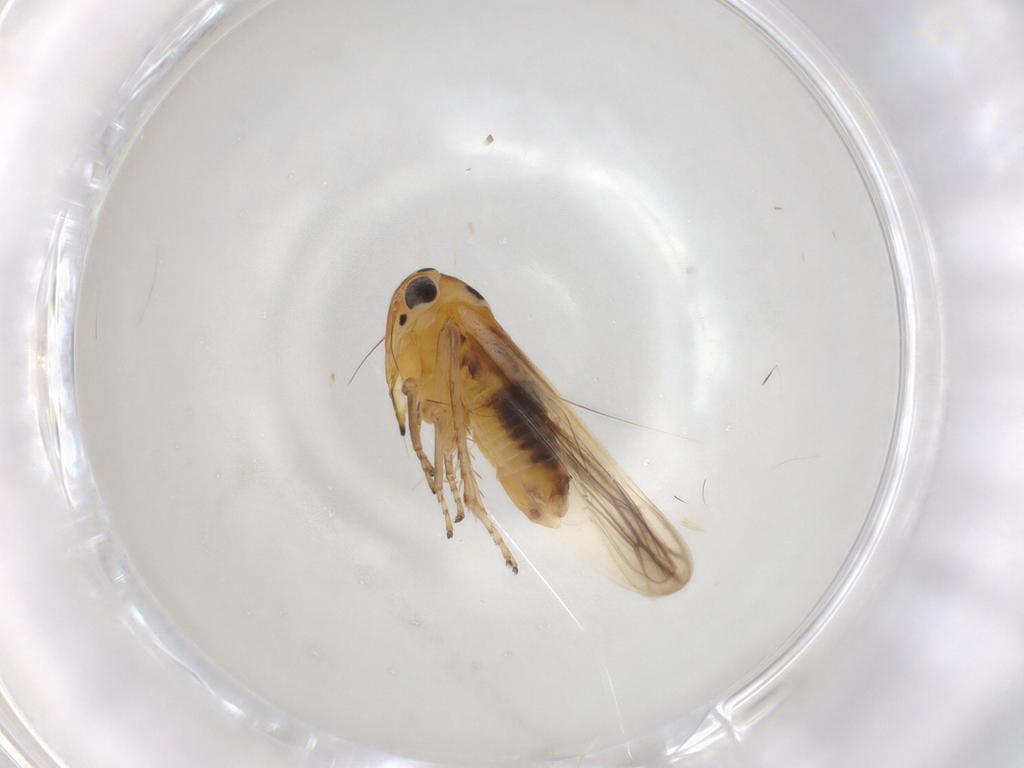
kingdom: Animalia
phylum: Arthropoda
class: Insecta
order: Hemiptera
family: Cicadellidae
